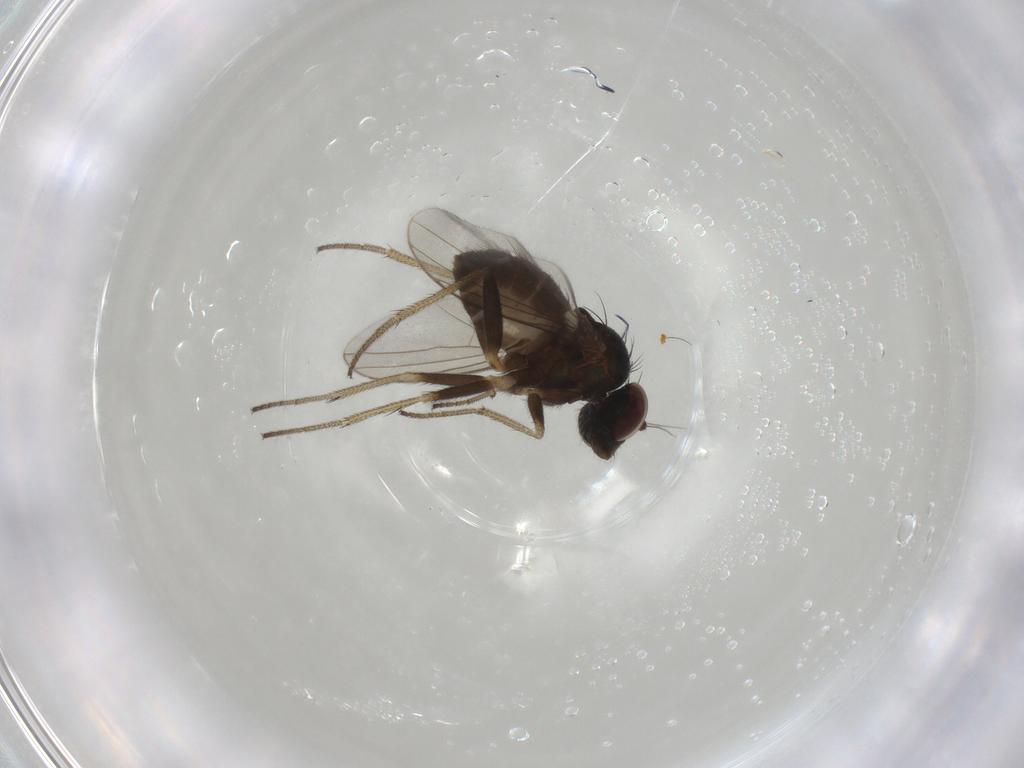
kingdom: Animalia
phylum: Arthropoda
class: Insecta
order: Diptera
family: Dolichopodidae
